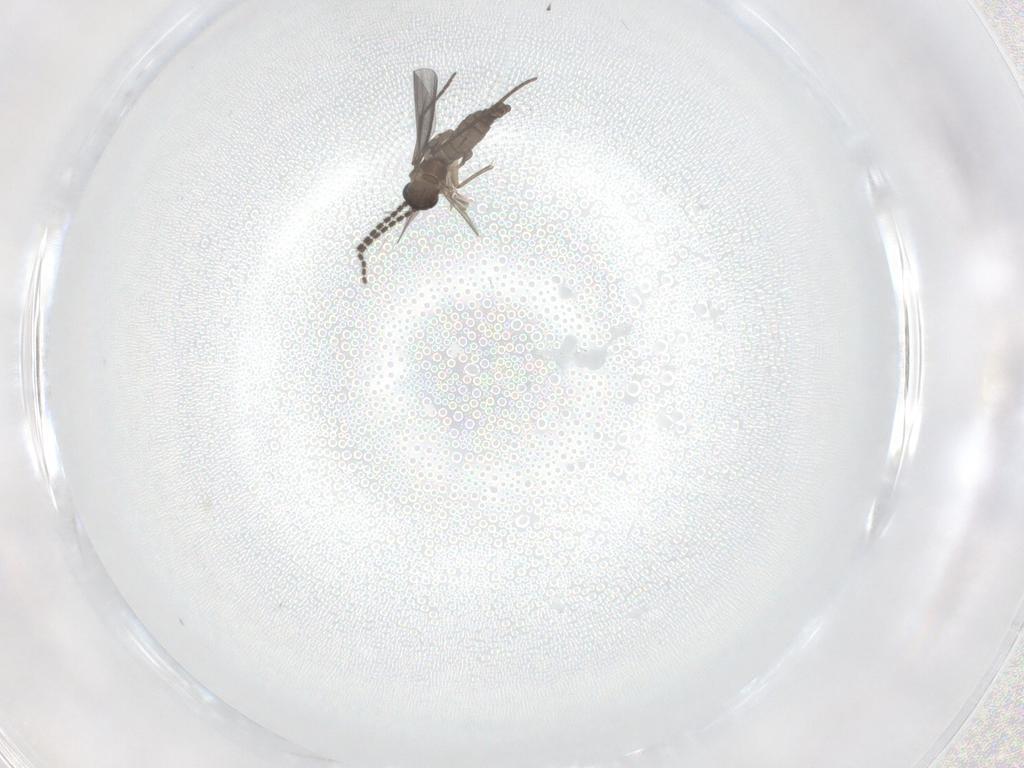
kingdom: Animalia
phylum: Arthropoda
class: Insecta
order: Diptera
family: Sciaridae
